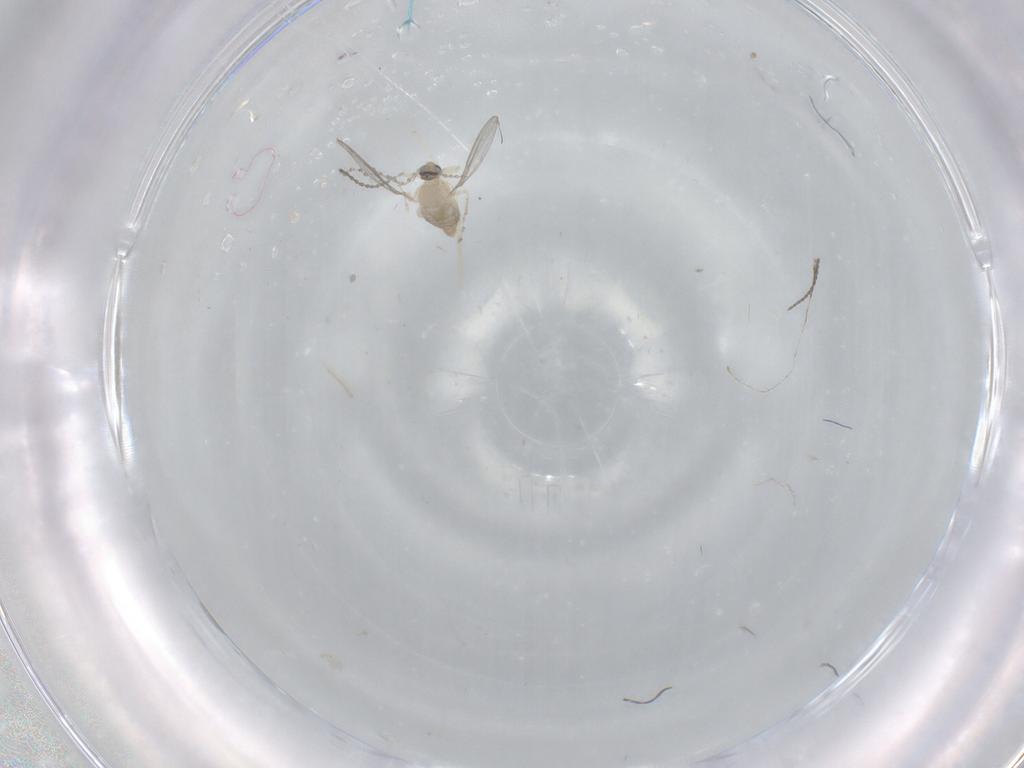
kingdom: Animalia
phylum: Arthropoda
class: Insecta
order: Diptera
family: Cecidomyiidae
